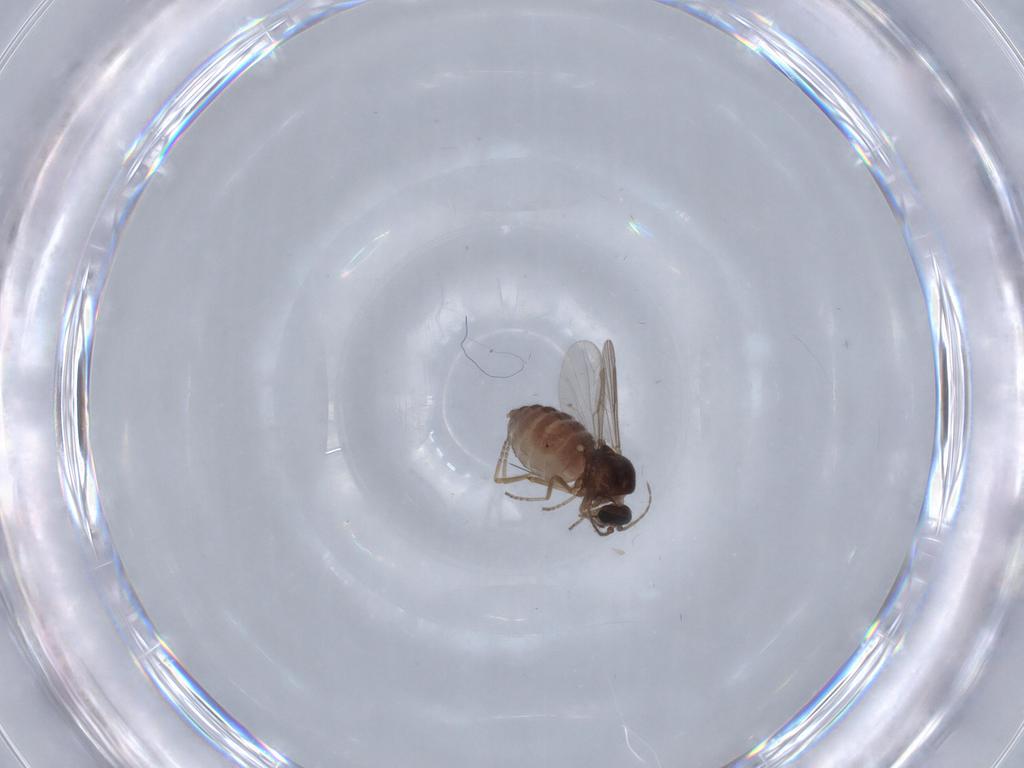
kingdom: Animalia
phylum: Arthropoda
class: Insecta
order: Diptera
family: Ceratopogonidae
